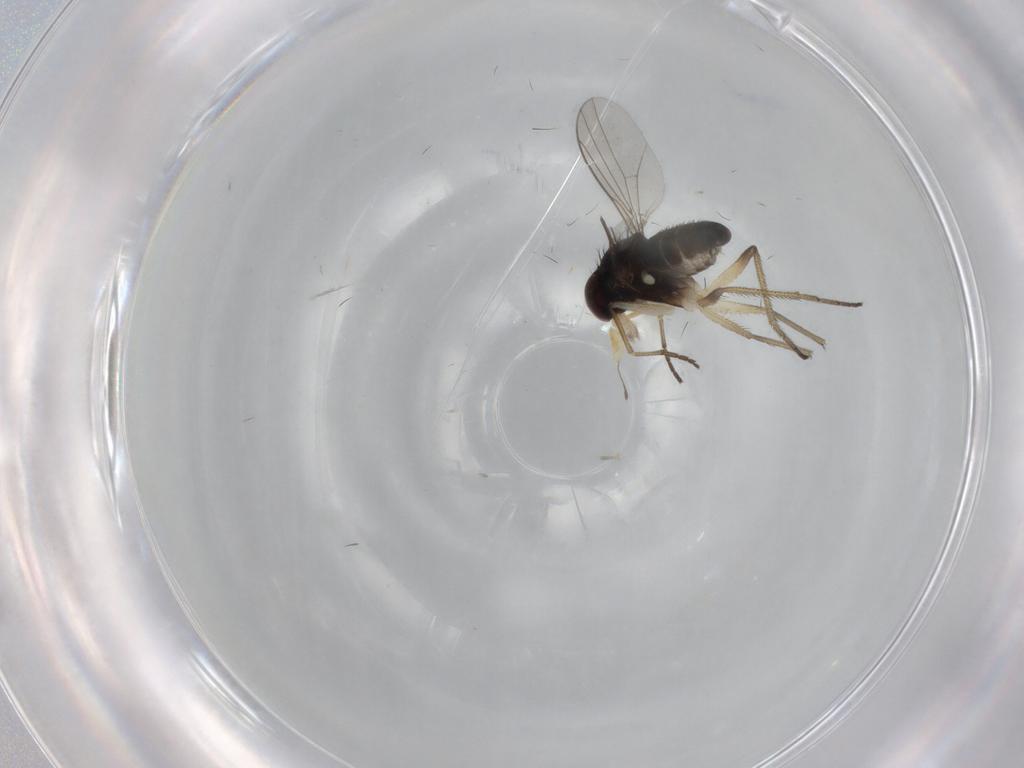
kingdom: Animalia
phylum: Arthropoda
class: Insecta
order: Diptera
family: Dolichopodidae
